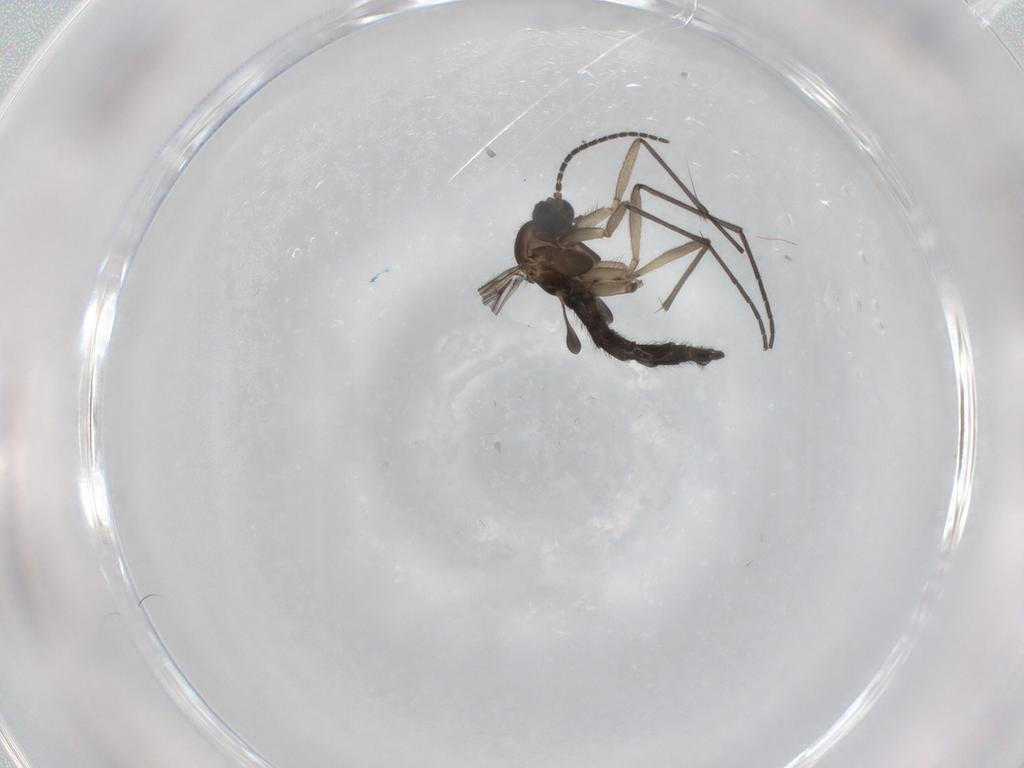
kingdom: Animalia
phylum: Arthropoda
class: Insecta
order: Diptera
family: Sciaridae
